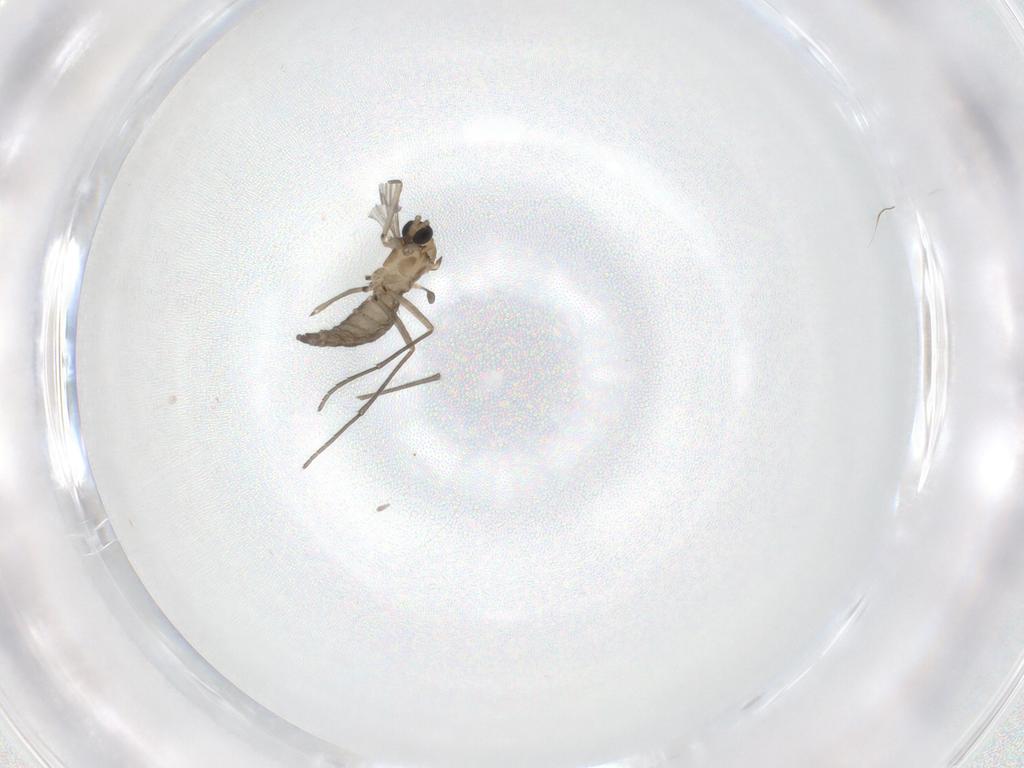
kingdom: Animalia
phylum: Arthropoda
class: Insecta
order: Diptera
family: Sciaridae
